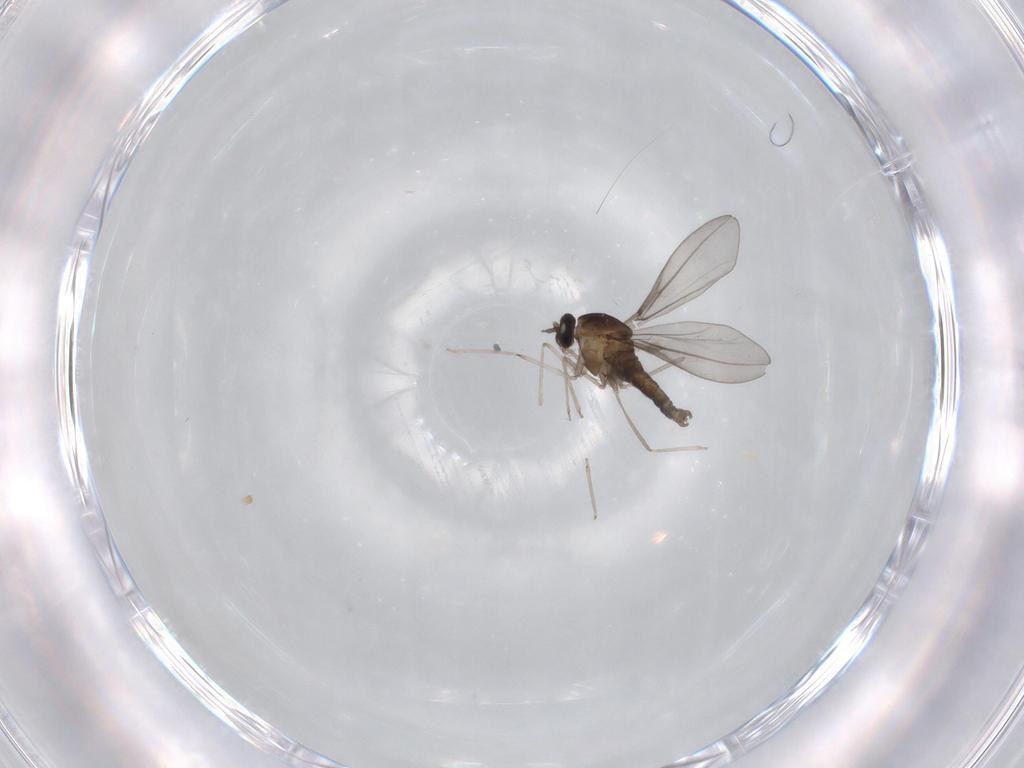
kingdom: Animalia
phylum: Arthropoda
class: Insecta
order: Diptera
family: Cecidomyiidae
